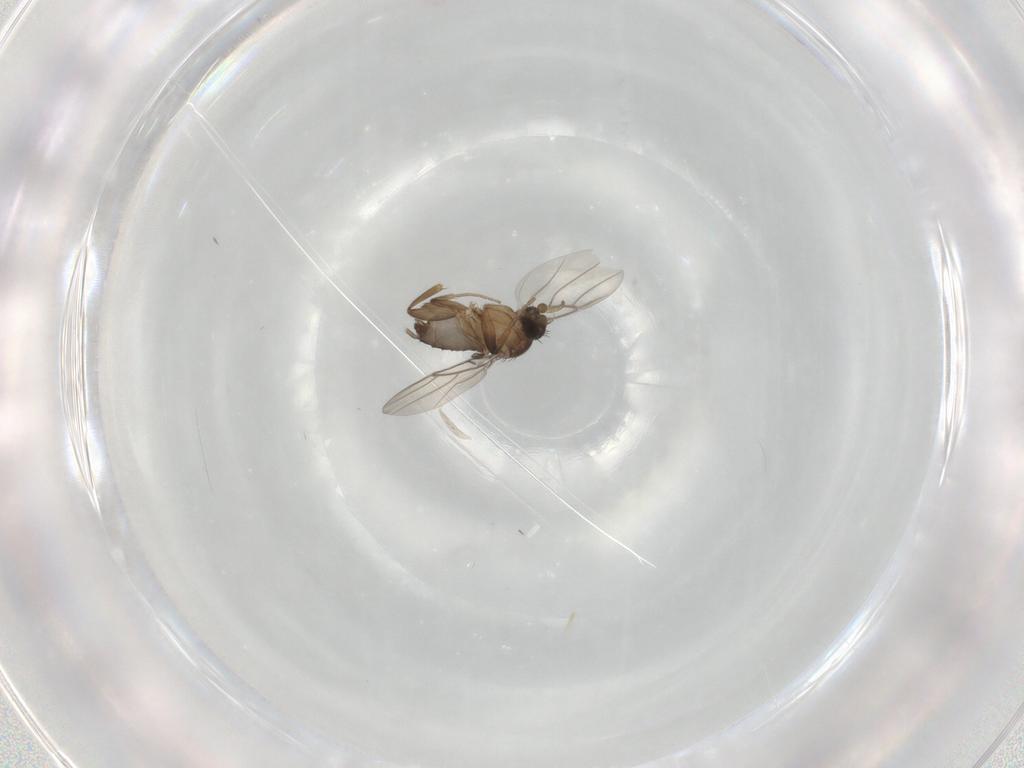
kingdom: Animalia
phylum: Arthropoda
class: Insecta
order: Diptera
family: Phoridae
